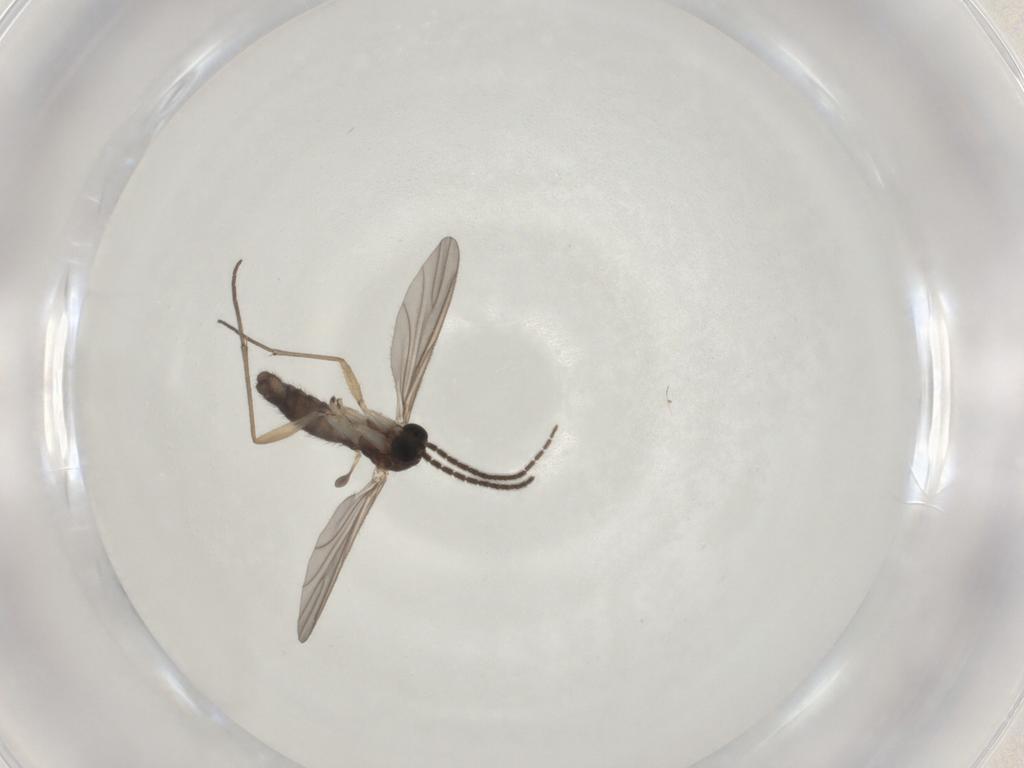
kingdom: Animalia
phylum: Arthropoda
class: Insecta
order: Diptera
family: Sciaridae
